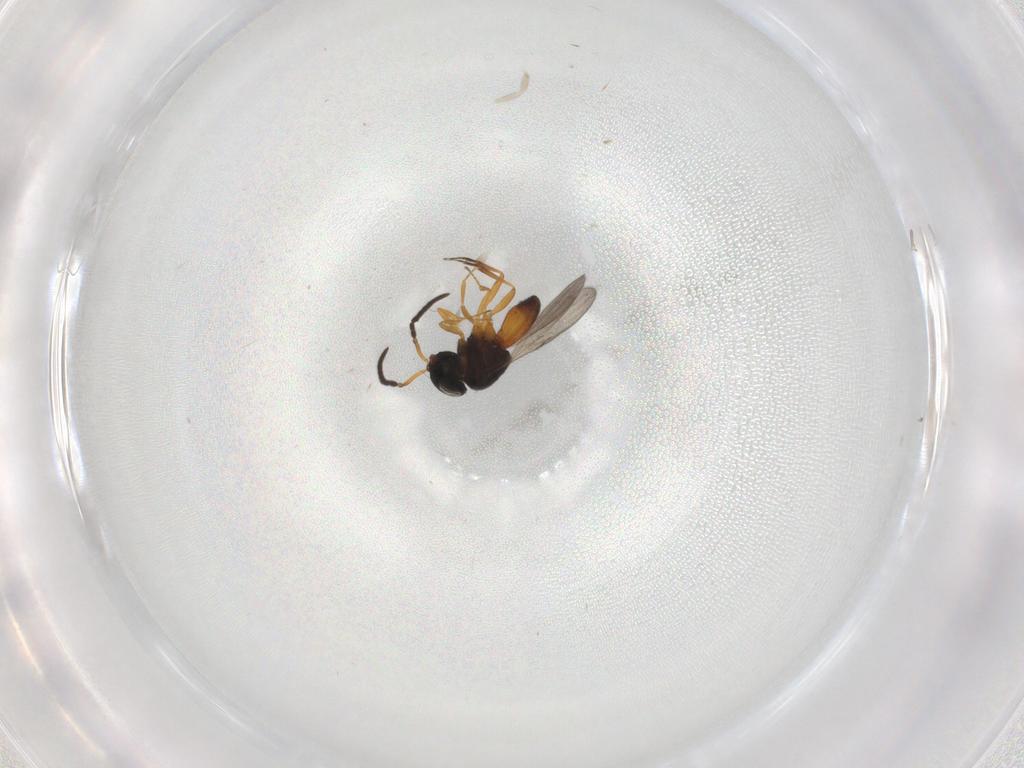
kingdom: Animalia
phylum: Arthropoda
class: Insecta
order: Hymenoptera
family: Scelionidae
